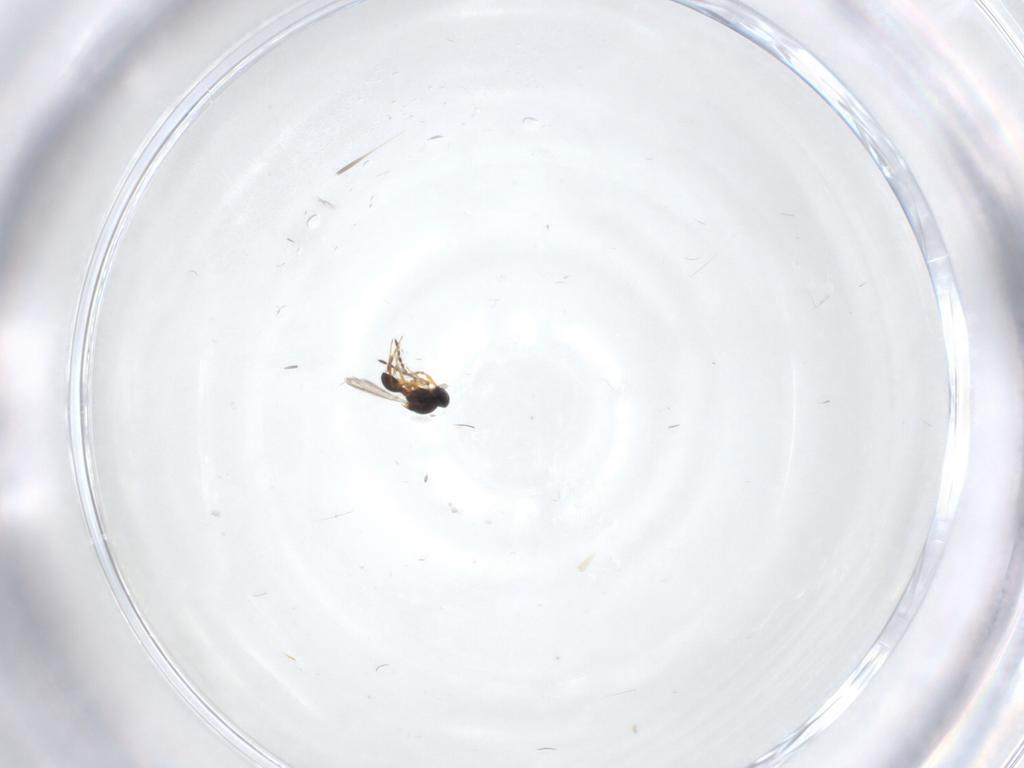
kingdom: Animalia
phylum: Arthropoda
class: Insecta
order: Hymenoptera
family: Platygastridae
